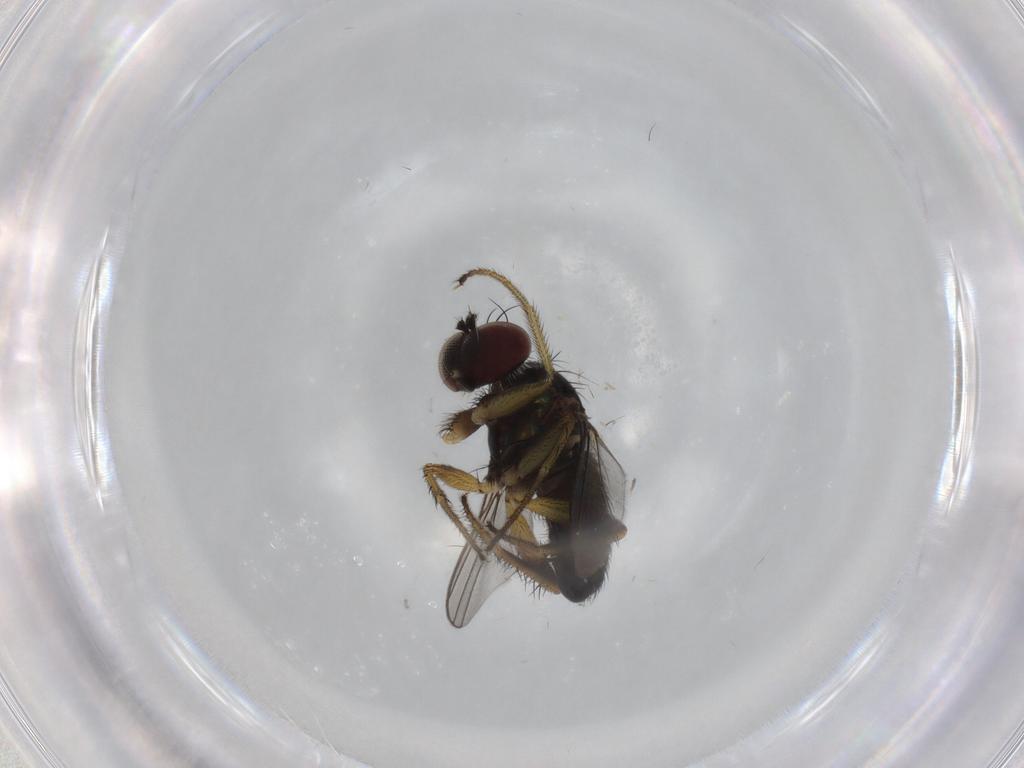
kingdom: Animalia
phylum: Arthropoda
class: Insecta
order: Diptera
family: Dolichopodidae
